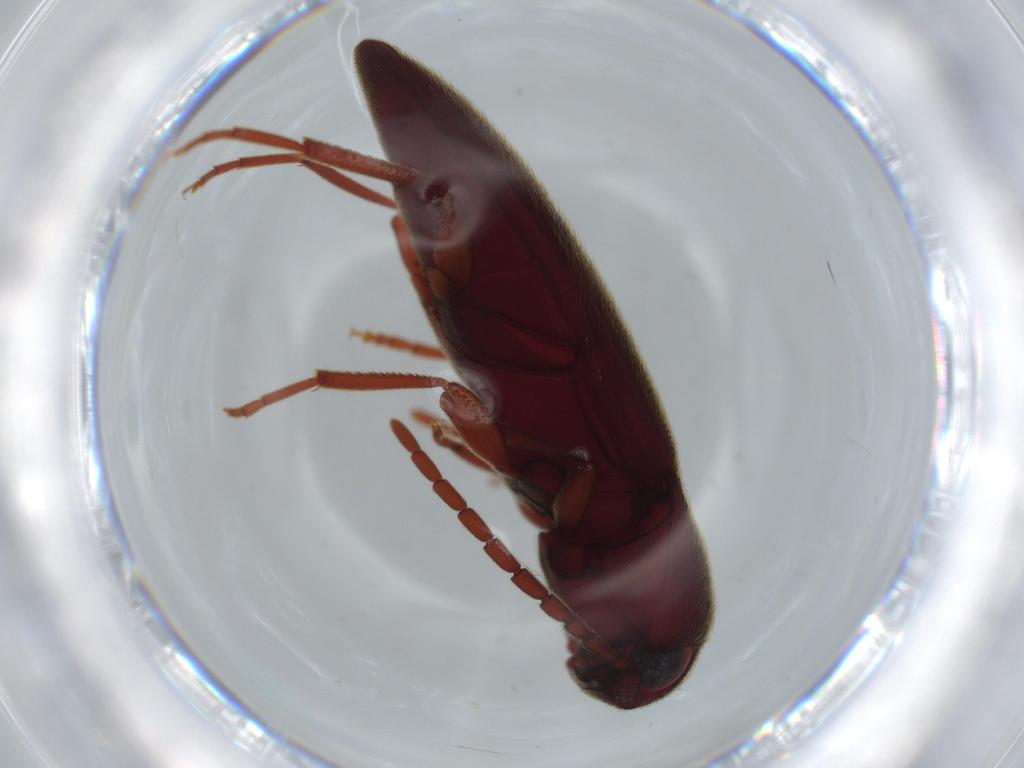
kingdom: Animalia
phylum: Arthropoda
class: Insecta
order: Coleoptera
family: Eucnemidae
